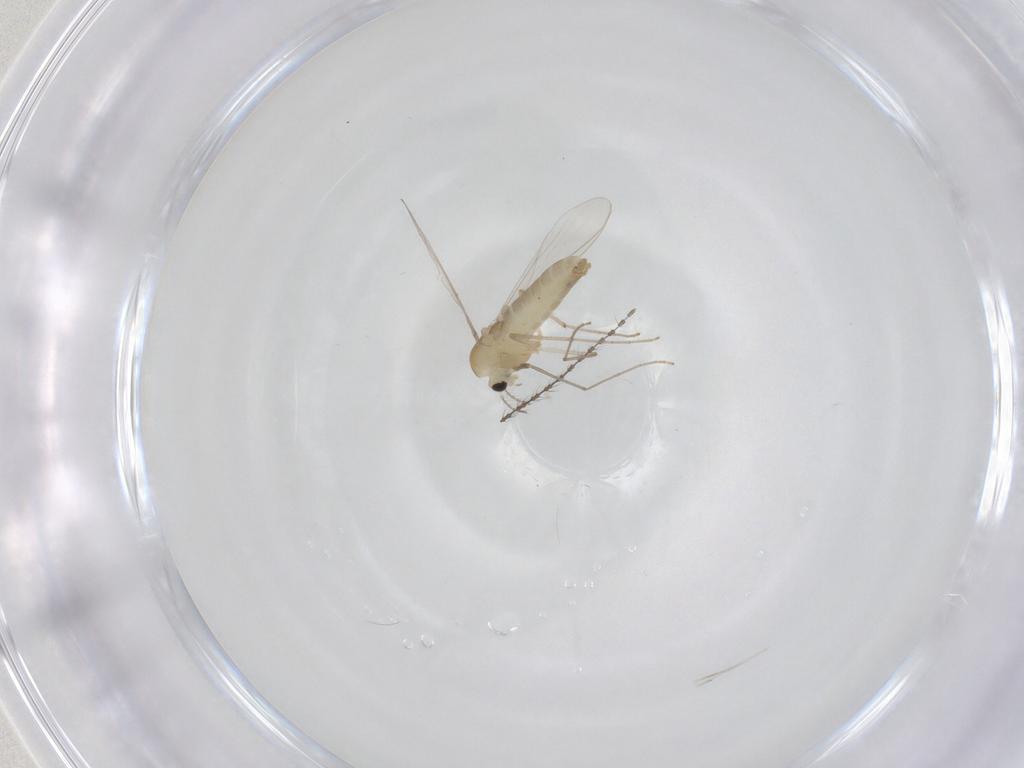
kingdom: Animalia
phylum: Arthropoda
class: Insecta
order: Diptera
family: Chironomidae
